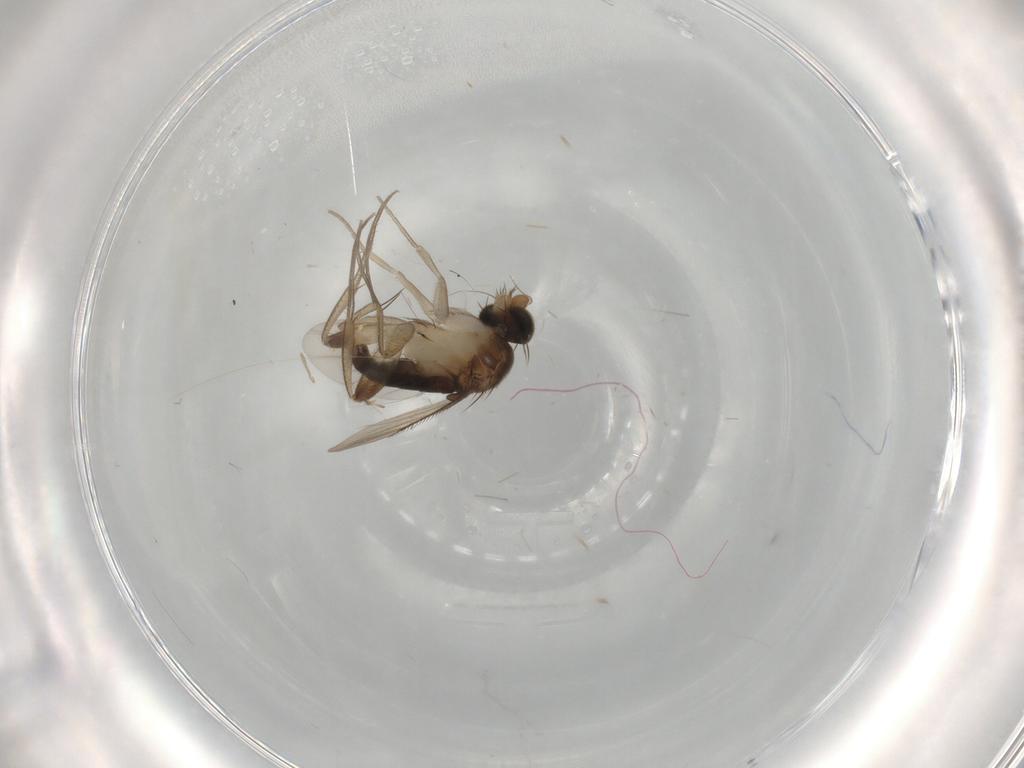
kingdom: Animalia
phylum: Arthropoda
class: Insecta
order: Diptera
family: Phoridae
